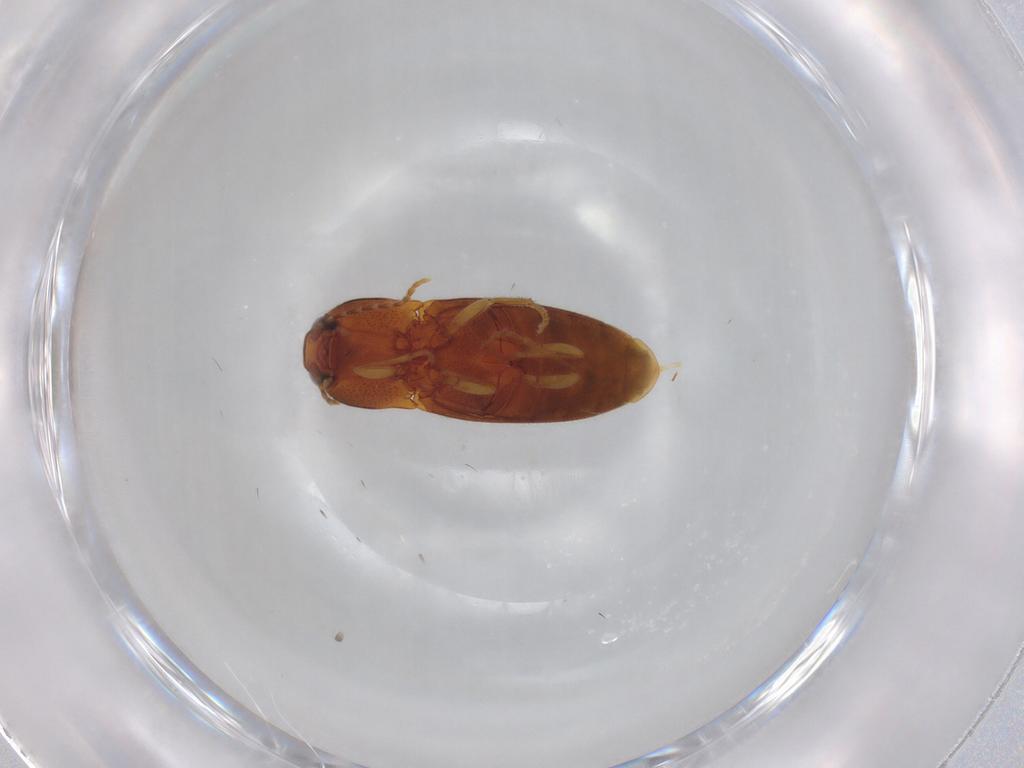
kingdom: Animalia
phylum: Arthropoda
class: Insecta
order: Coleoptera
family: Elateridae
